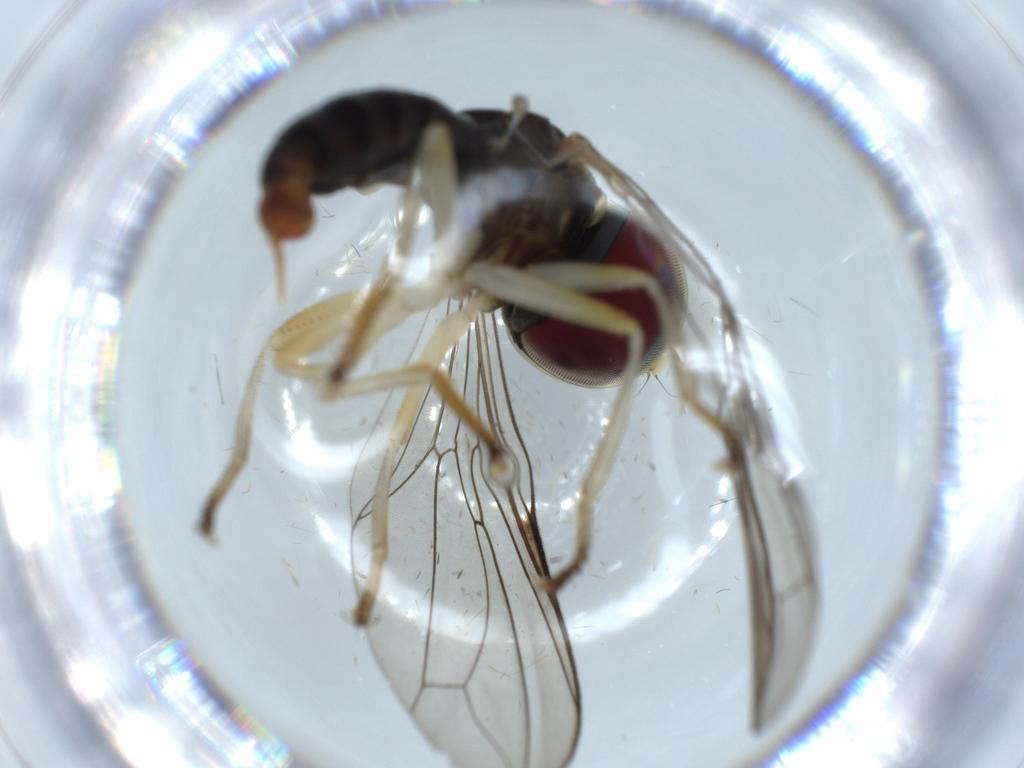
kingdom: Animalia
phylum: Arthropoda
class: Insecta
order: Diptera
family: Pipunculidae
